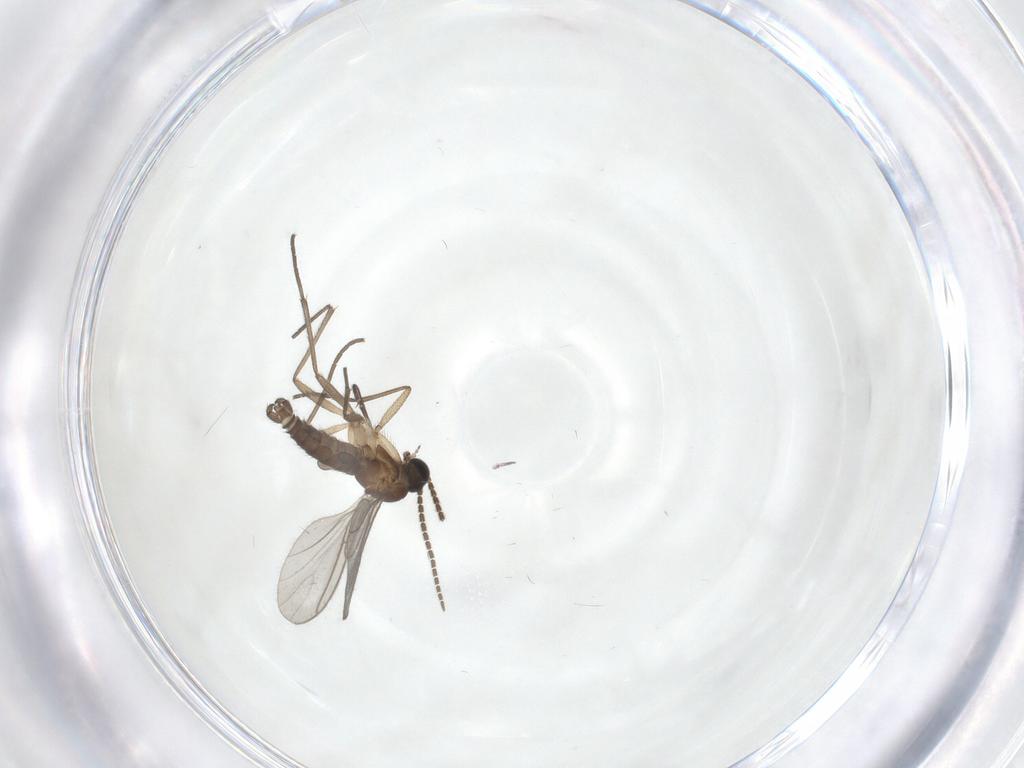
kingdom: Animalia
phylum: Arthropoda
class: Insecta
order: Diptera
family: Sciaridae
